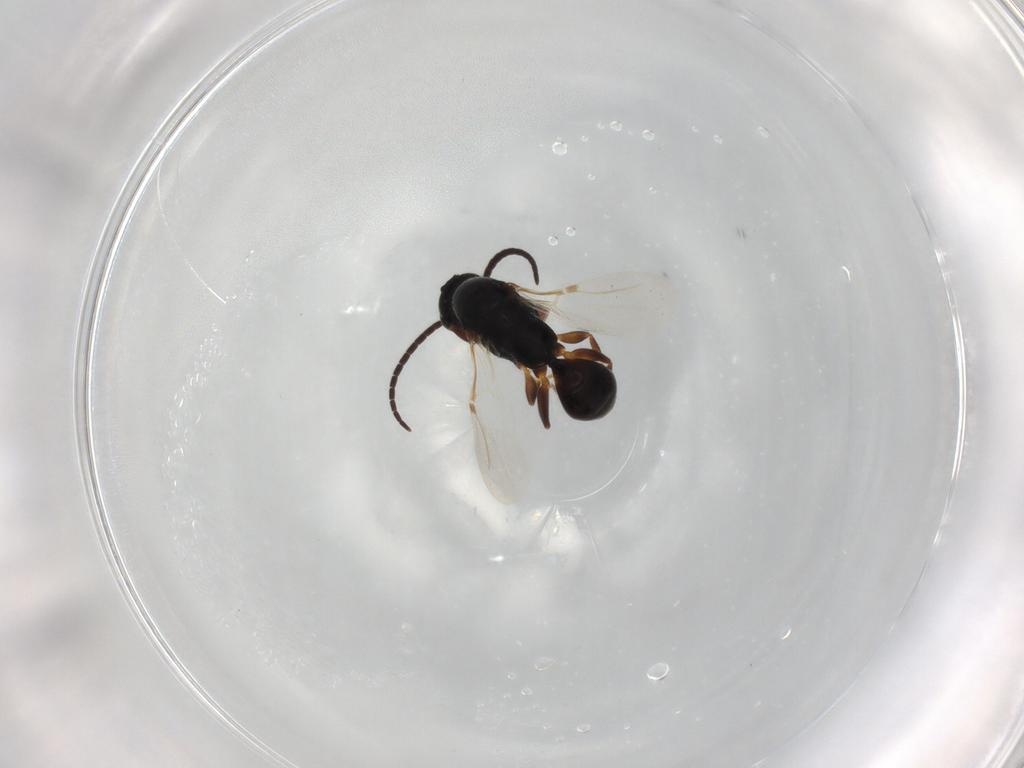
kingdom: Animalia
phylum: Arthropoda
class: Insecta
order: Hymenoptera
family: Bethylidae
